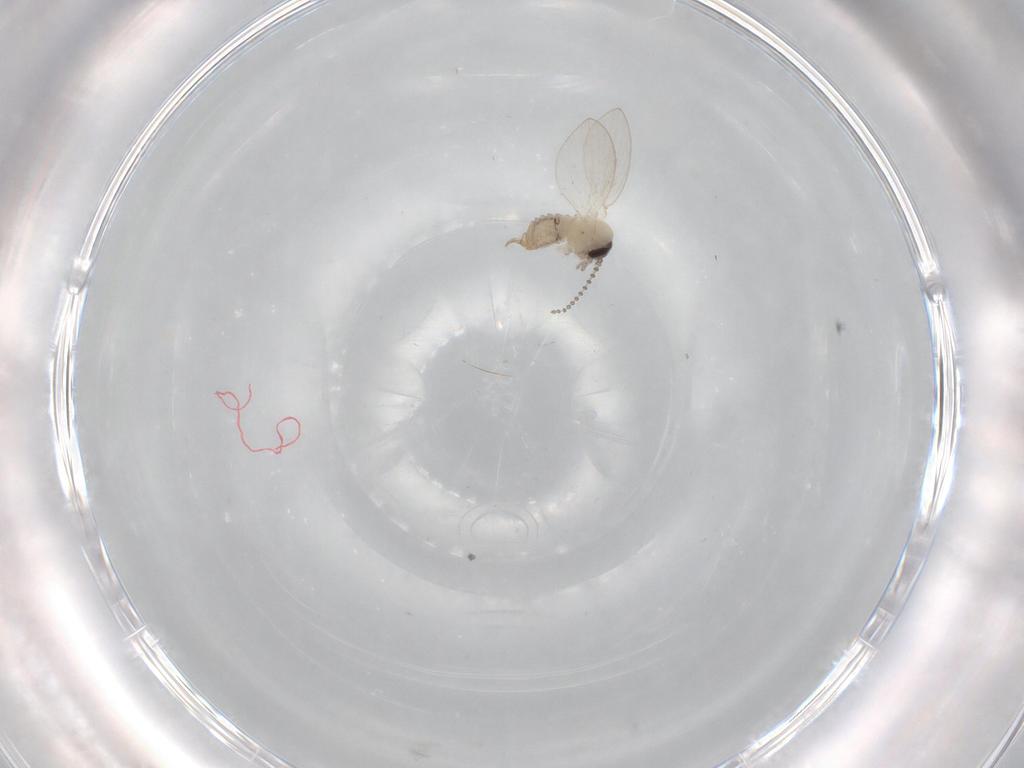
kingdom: Animalia
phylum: Arthropoda
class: Insecta
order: Diptera
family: Psychodidae
